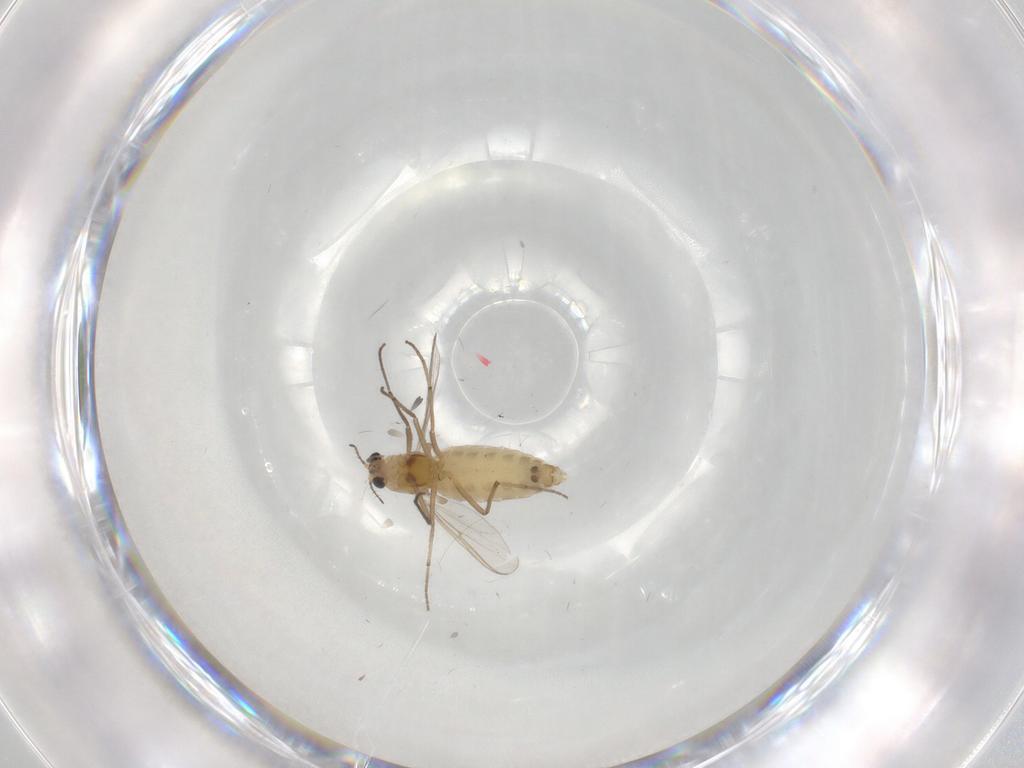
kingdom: Animalia
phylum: Arthropoda
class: Insecta
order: Diptera
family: Chironomidae
